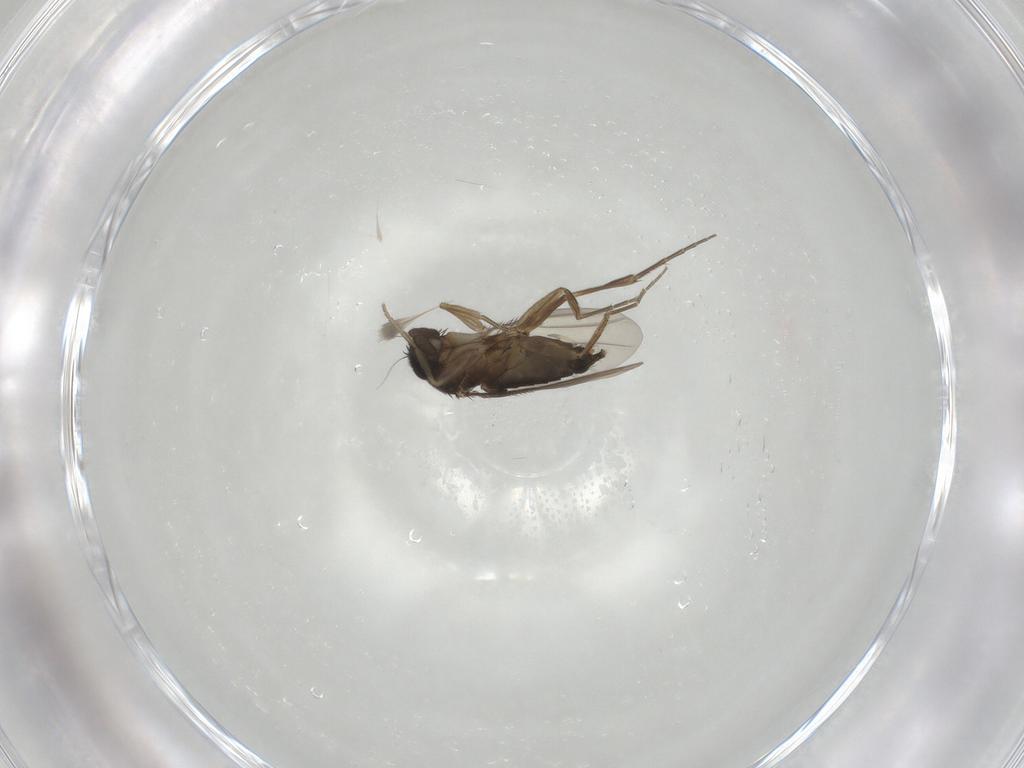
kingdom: Animalia
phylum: Arthropoda
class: Insecta
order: Diptera
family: Phoridae
